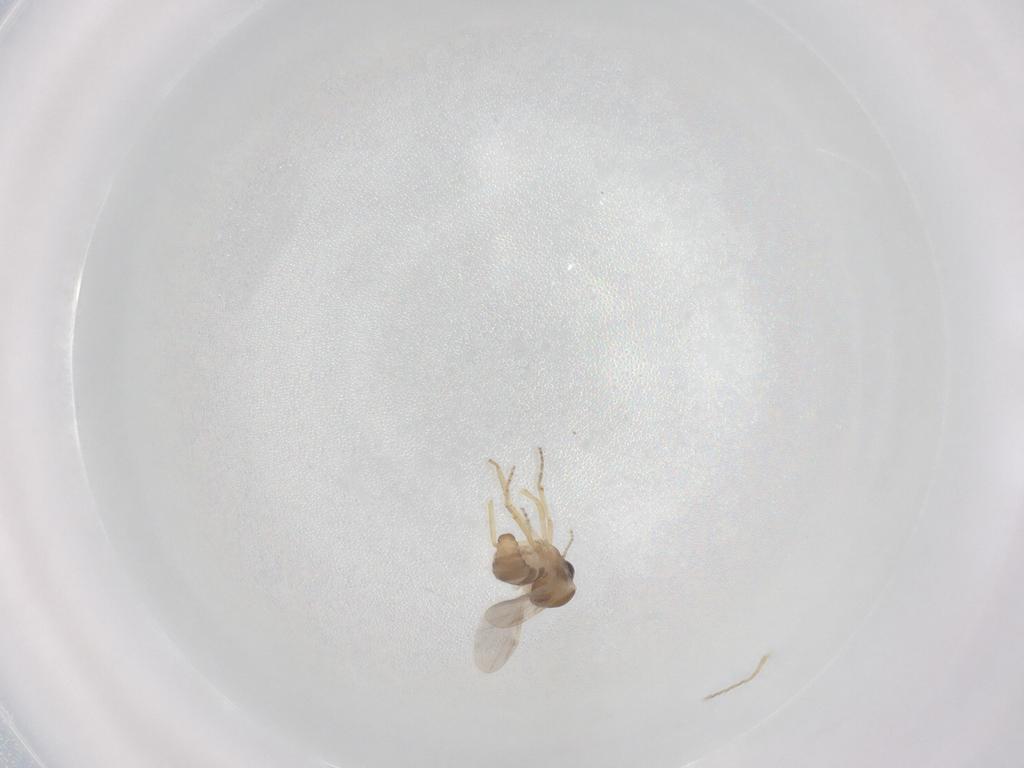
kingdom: Animalia
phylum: Arthropoda
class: Insecta
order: Diptera
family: Ceratopogonidae
